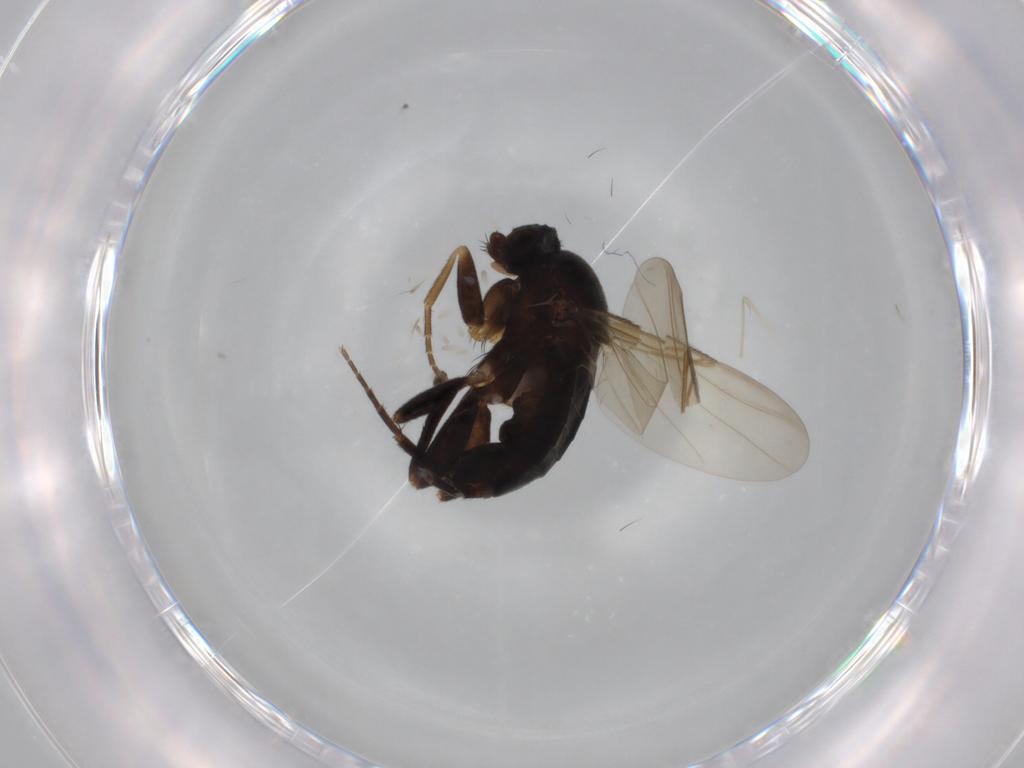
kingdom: Animalia
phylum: Arthropoda
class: Insecta
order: Diptera
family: Phoridae
